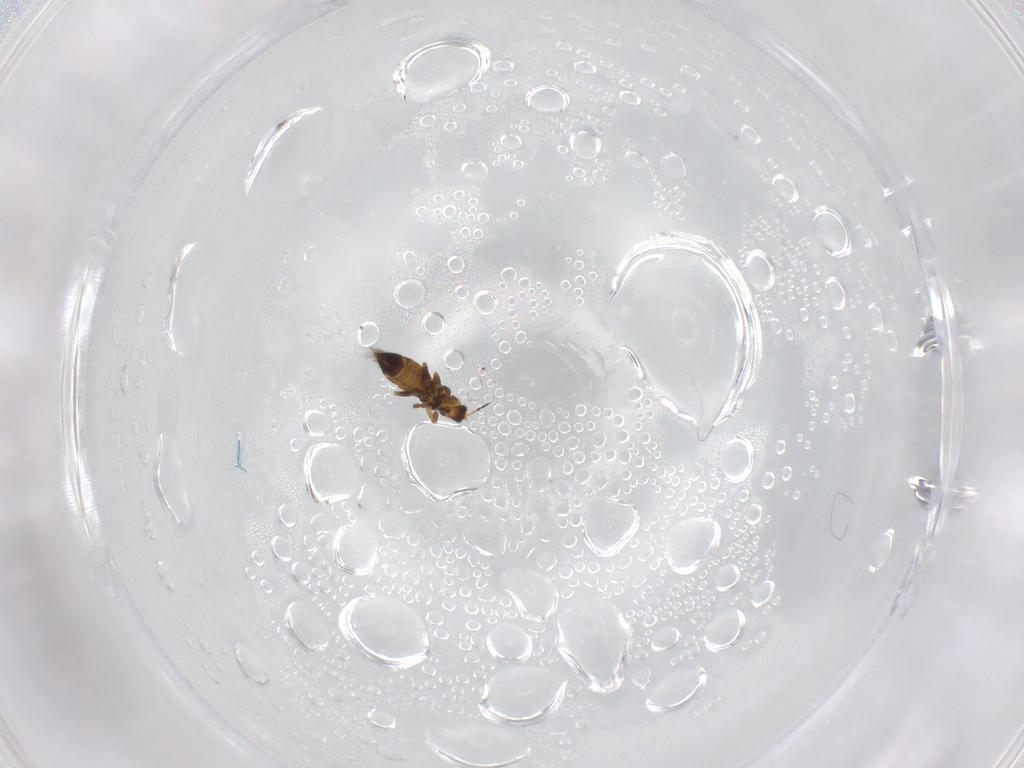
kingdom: Animalia
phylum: Arthropoda
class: Insecta
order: Thysanoptera
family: Thripidae
